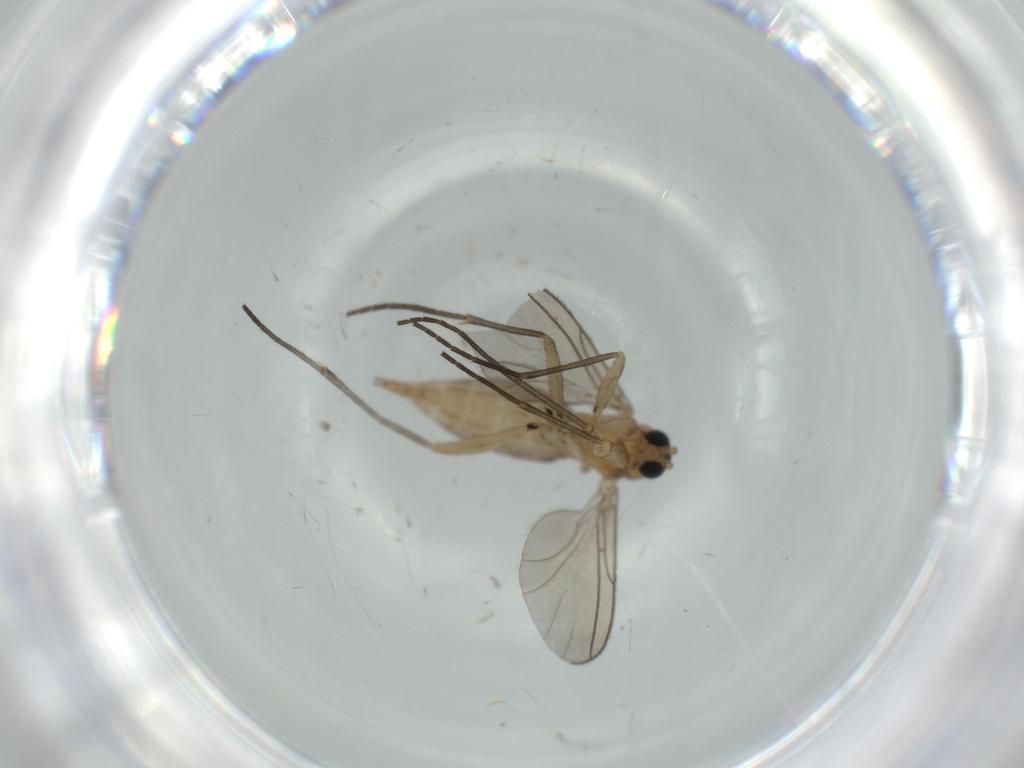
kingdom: Animalia
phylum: Arthropoda
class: Insecta
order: Diptera
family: Sciaridae
